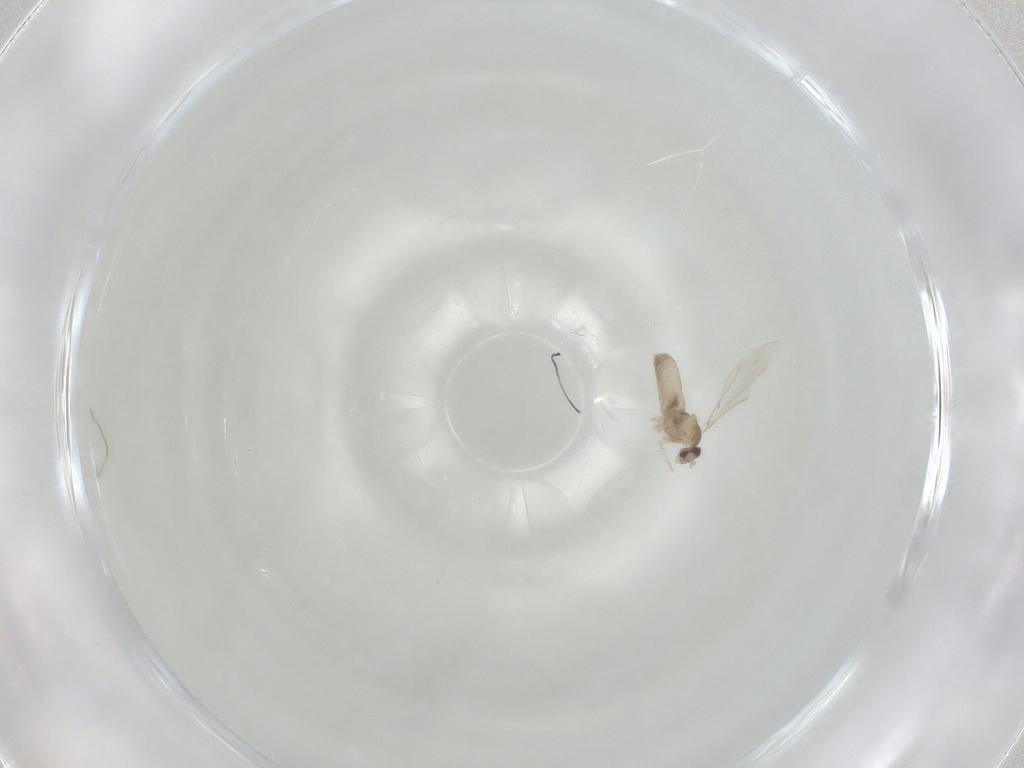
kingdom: Animalia
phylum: Arthropoda
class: Insecta
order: Diptera
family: Cecidomyiidae
